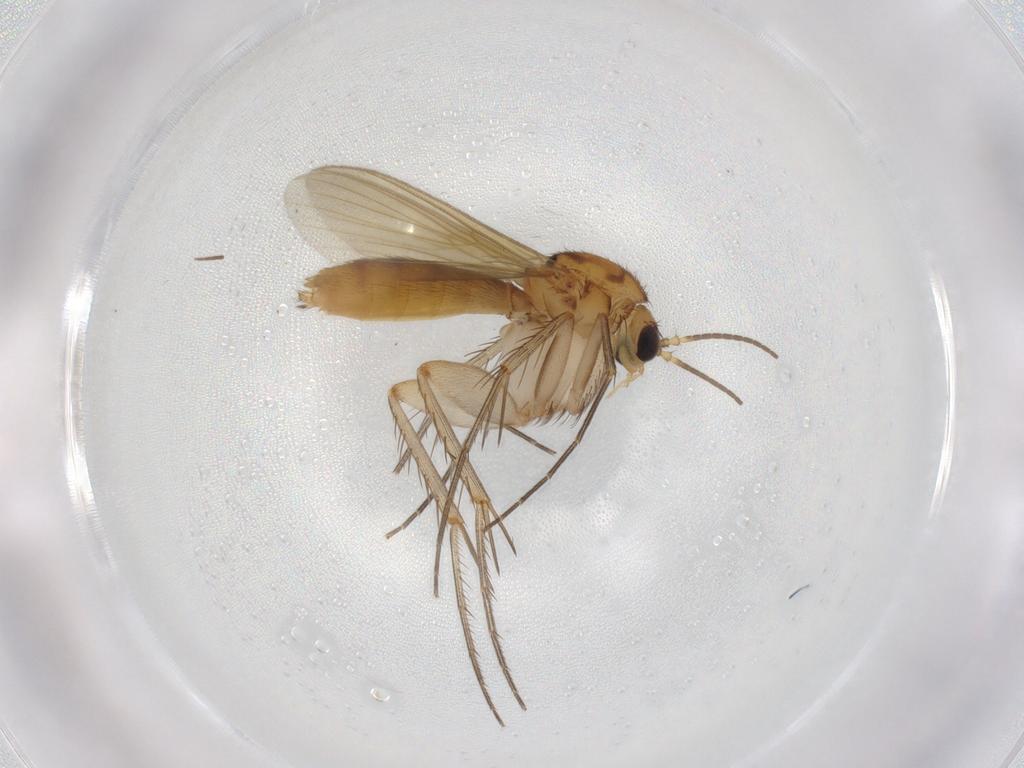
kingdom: Animalia
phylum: Arthropoda
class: Insecta
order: Diptera
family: Mycetophilidae
